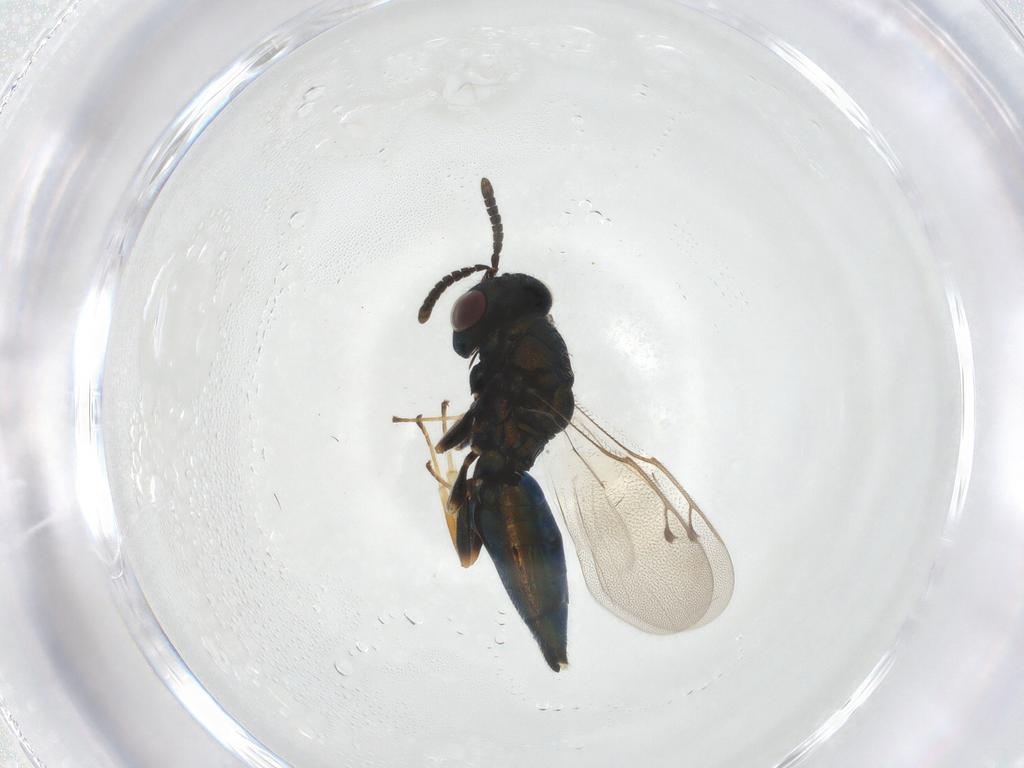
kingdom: Animalia
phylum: Arthropoda
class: Insecta
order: Hymenoptera
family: Pteromalidae
